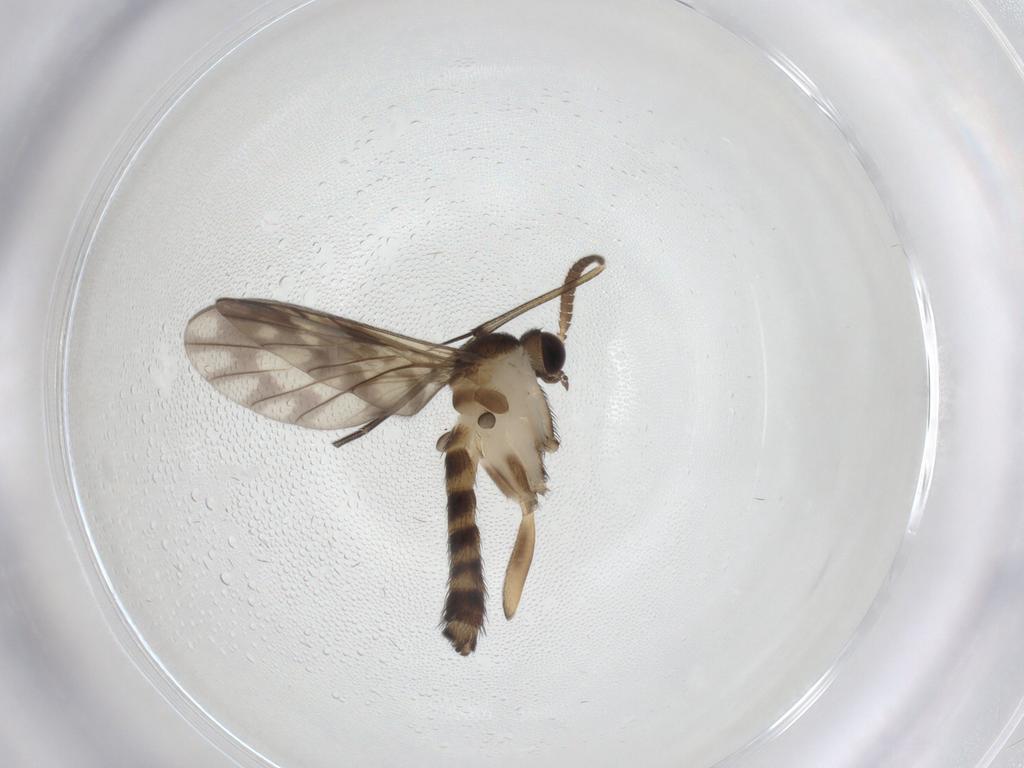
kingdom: Animalia
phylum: Arthropoda
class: Insecta
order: Diptera
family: Keroplatidae
